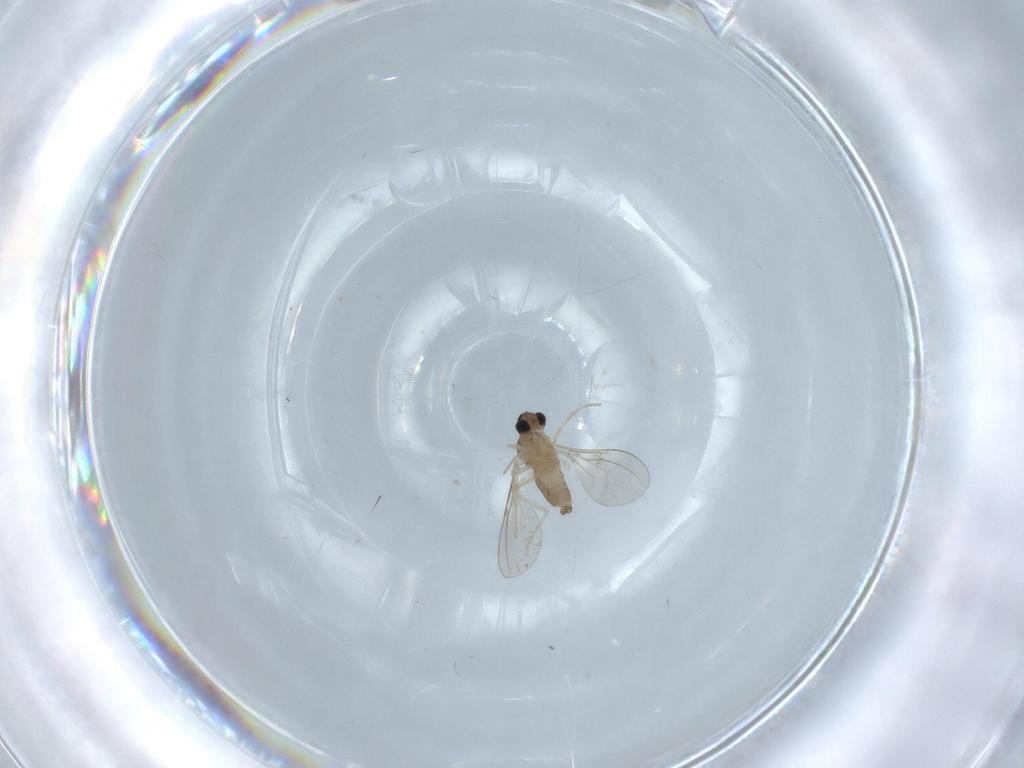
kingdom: Animalia
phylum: Arthropoda
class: Insecta
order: Diptera
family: Cecidomyiidae
